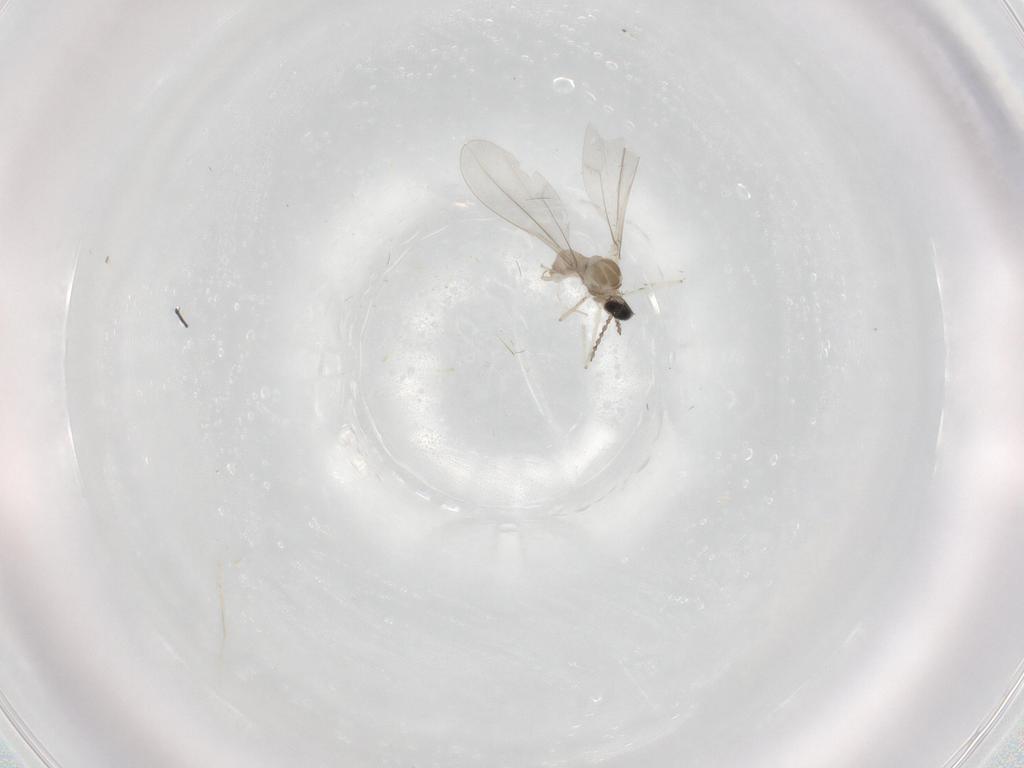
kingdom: Animalia
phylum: Arthropoda
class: Insecta
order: Diptera
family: Cecidomyiidae
